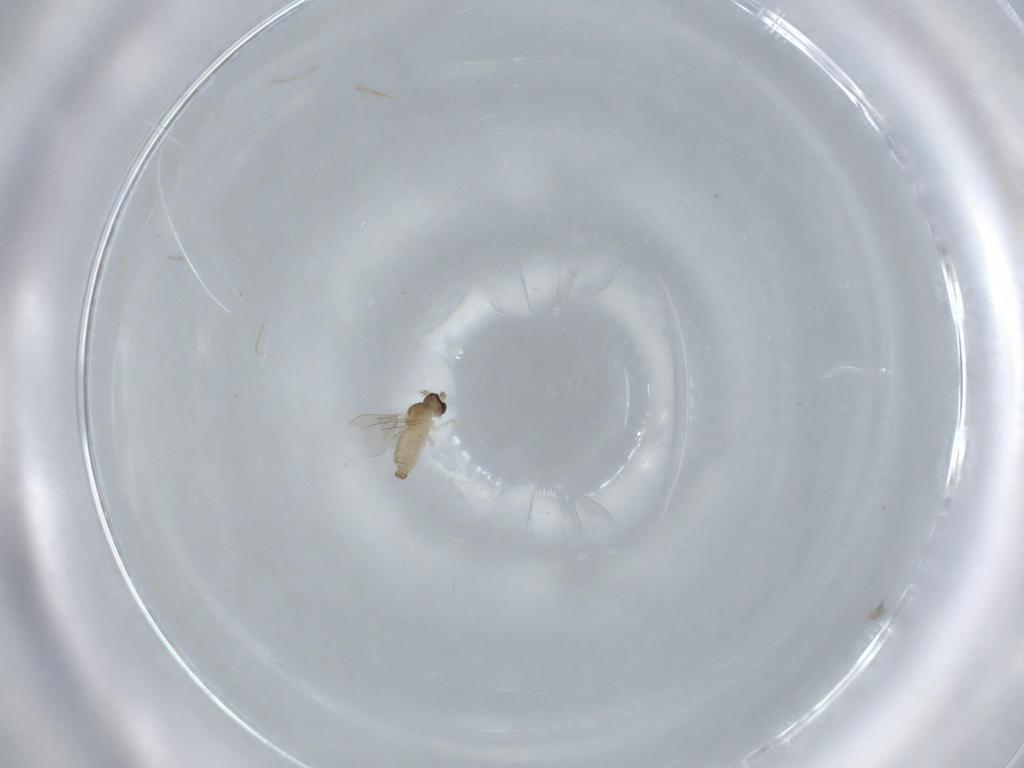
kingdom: Animalia
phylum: Arthropoda
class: Insecta
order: Diptera
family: Cecidomyiidae
